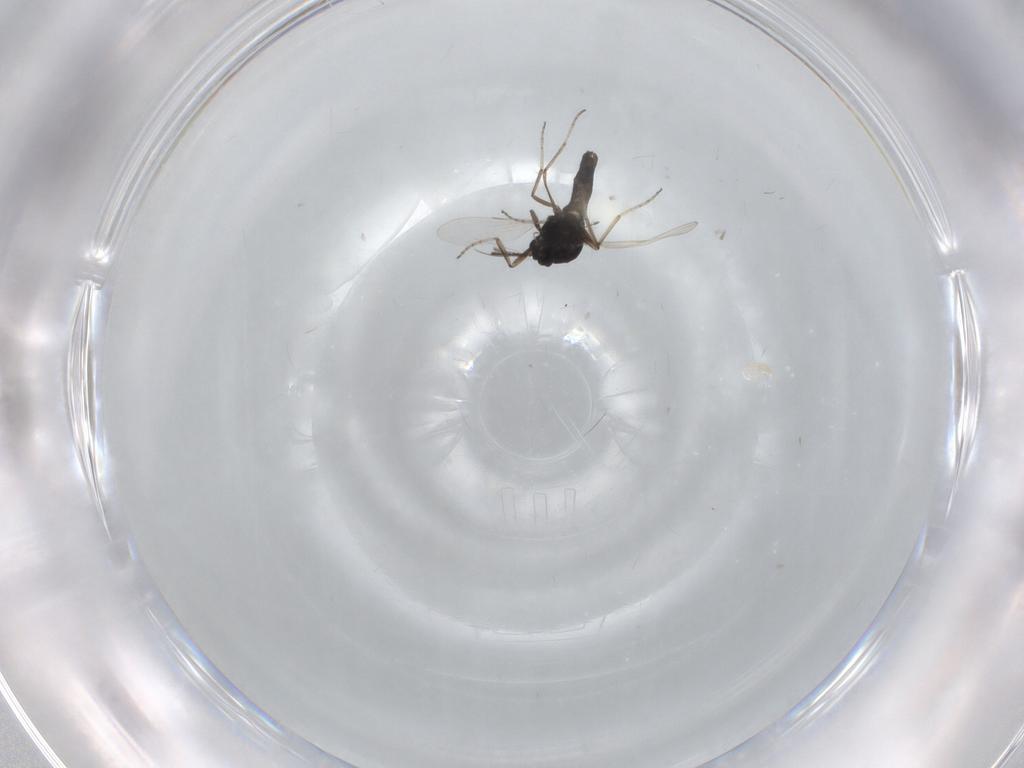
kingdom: Animalia
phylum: Arthropoda
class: Insecta
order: Diptera
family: Ceratopogonidae
